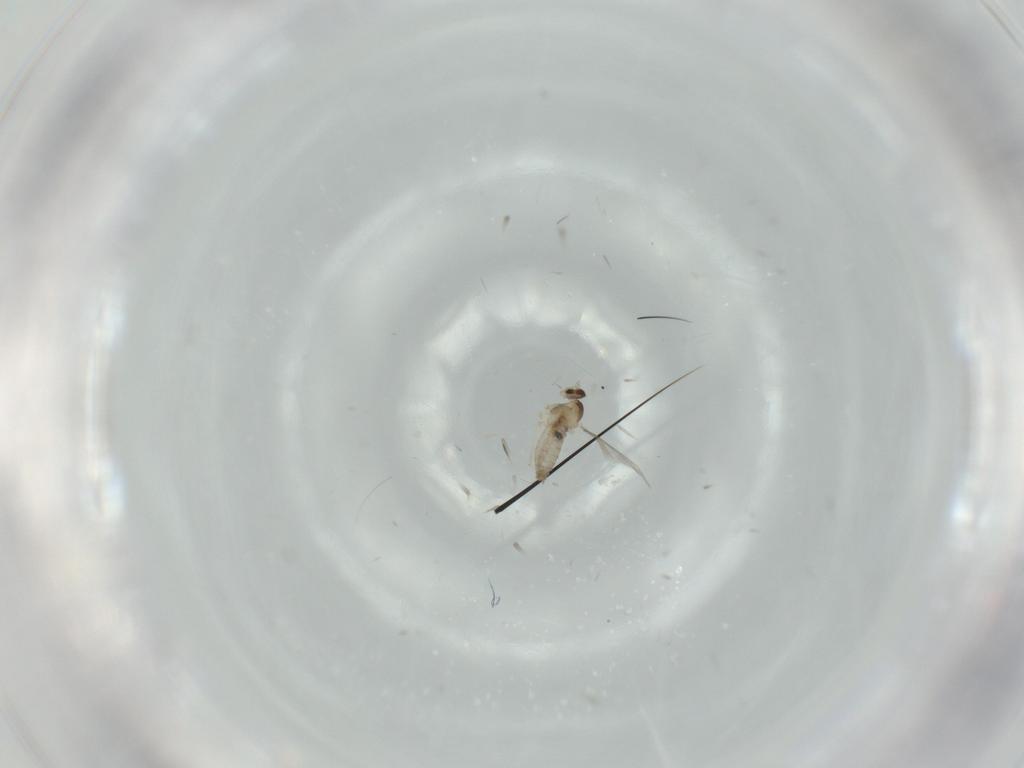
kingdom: Animalia
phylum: Arthropoda
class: Insecta
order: Diptera
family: Cecidomyiidae
